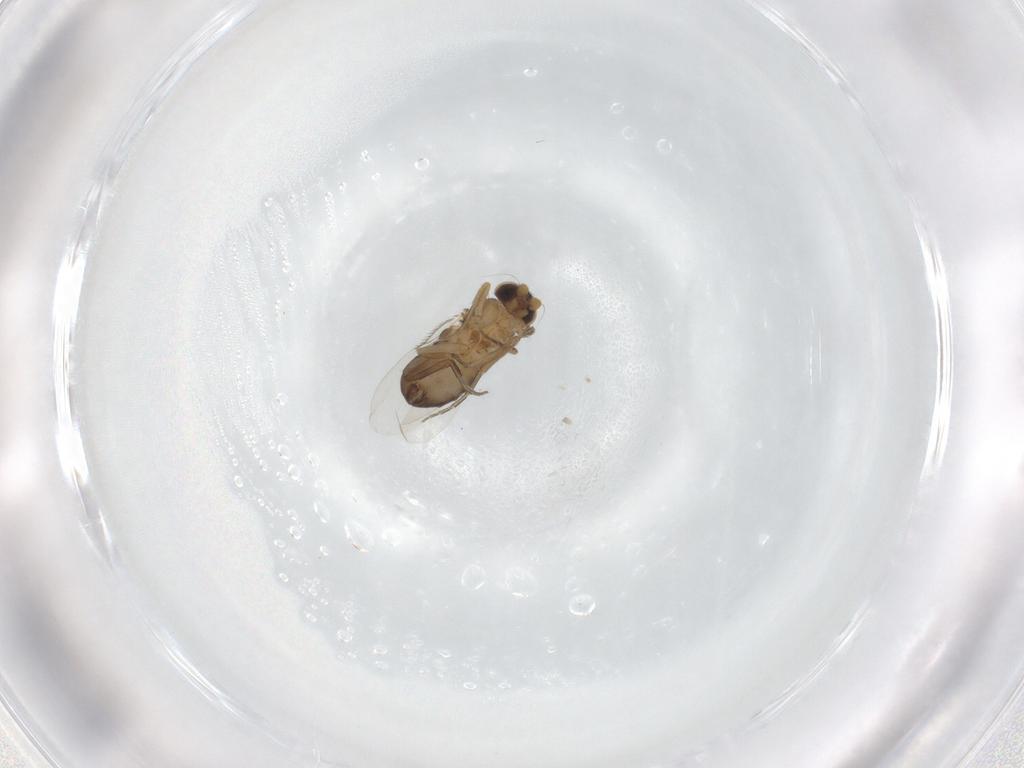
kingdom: Animalia
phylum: Arthropoda
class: Insecta
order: Diptera
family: Phoridae
